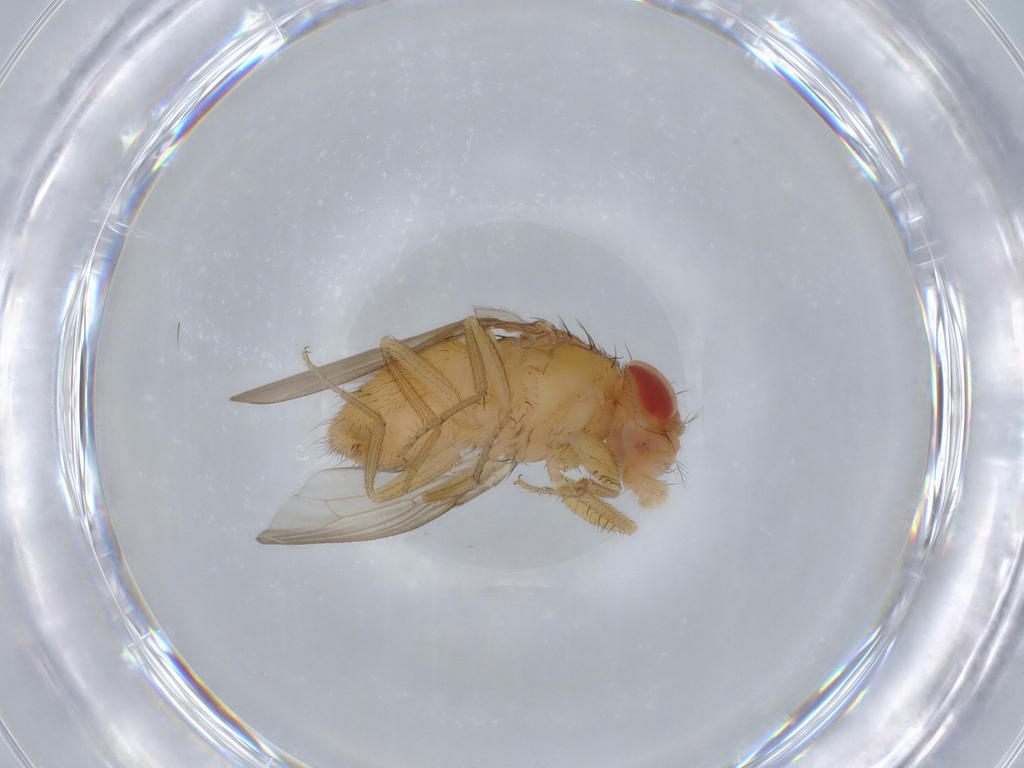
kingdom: Animalia
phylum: Arthropoda
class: Insecta
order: Diptera
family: Drosophilidae
